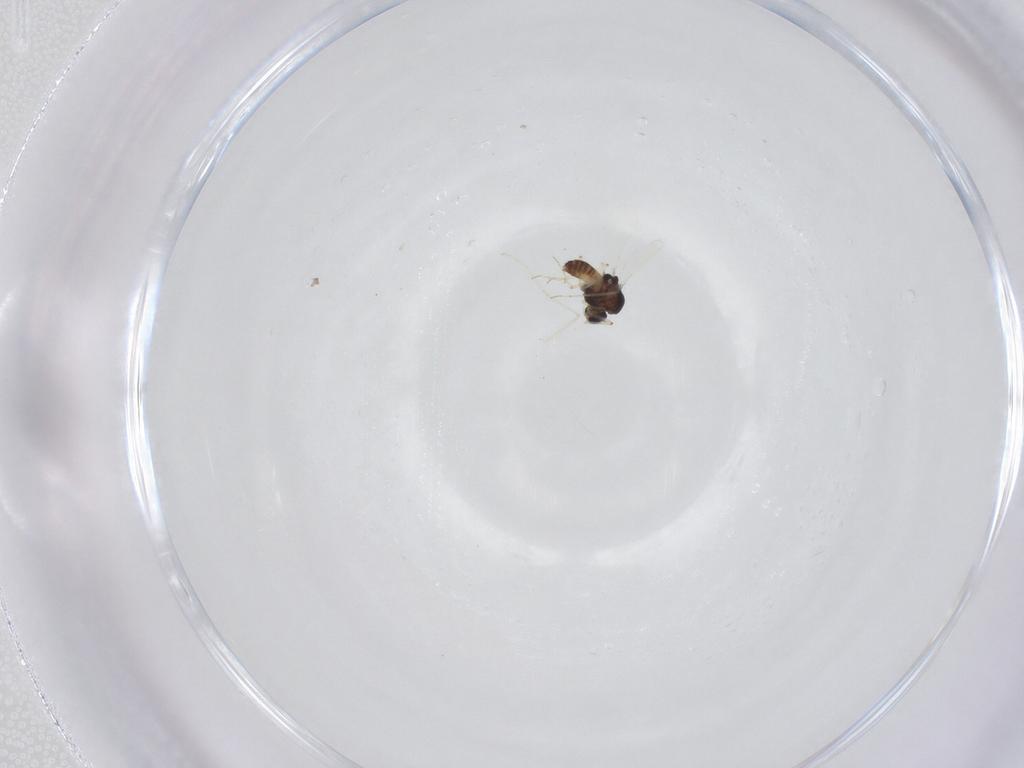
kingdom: Animalia
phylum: Arthropoda
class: Insecta
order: Diptera
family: Chironomidae
